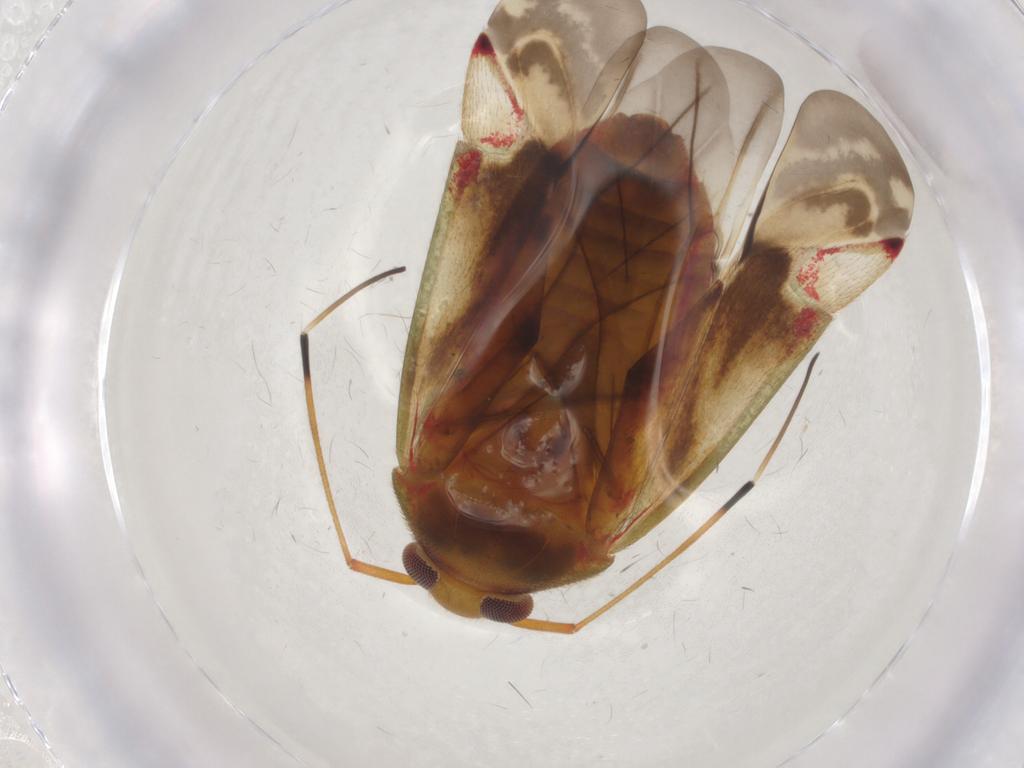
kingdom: Animalia
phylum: Arthropoda
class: Insecta
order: Hemiptera
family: Miridae
